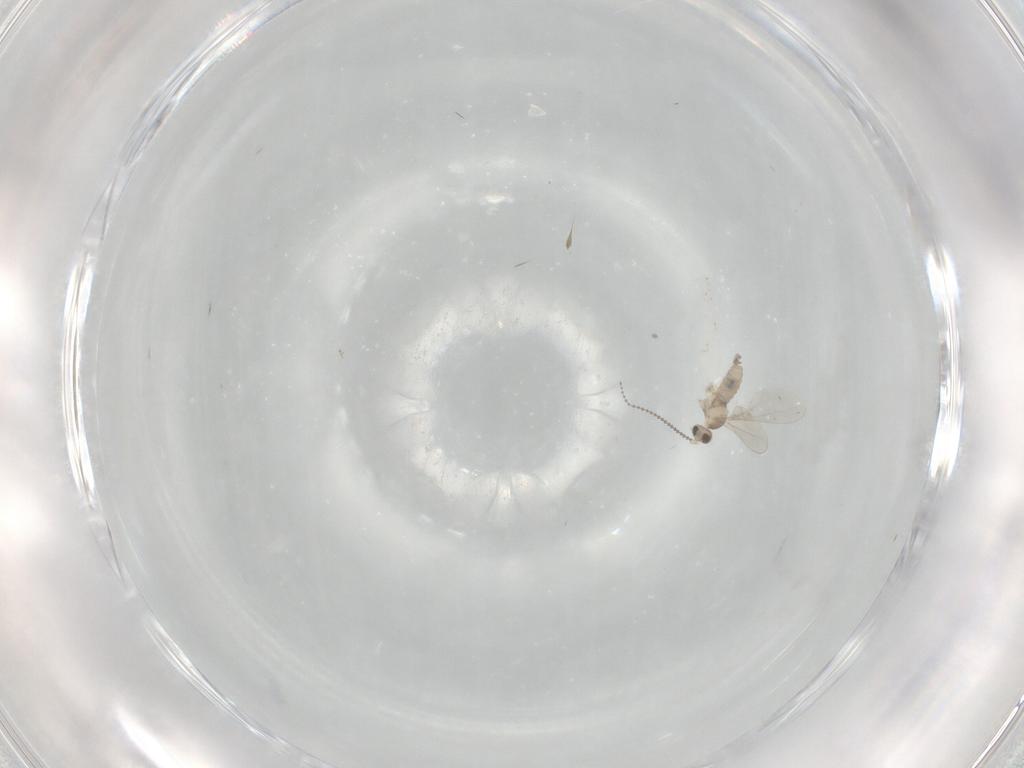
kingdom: Animalia
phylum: Arthropoda
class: Insecta
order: Diptera
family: Cecidomyiidae
